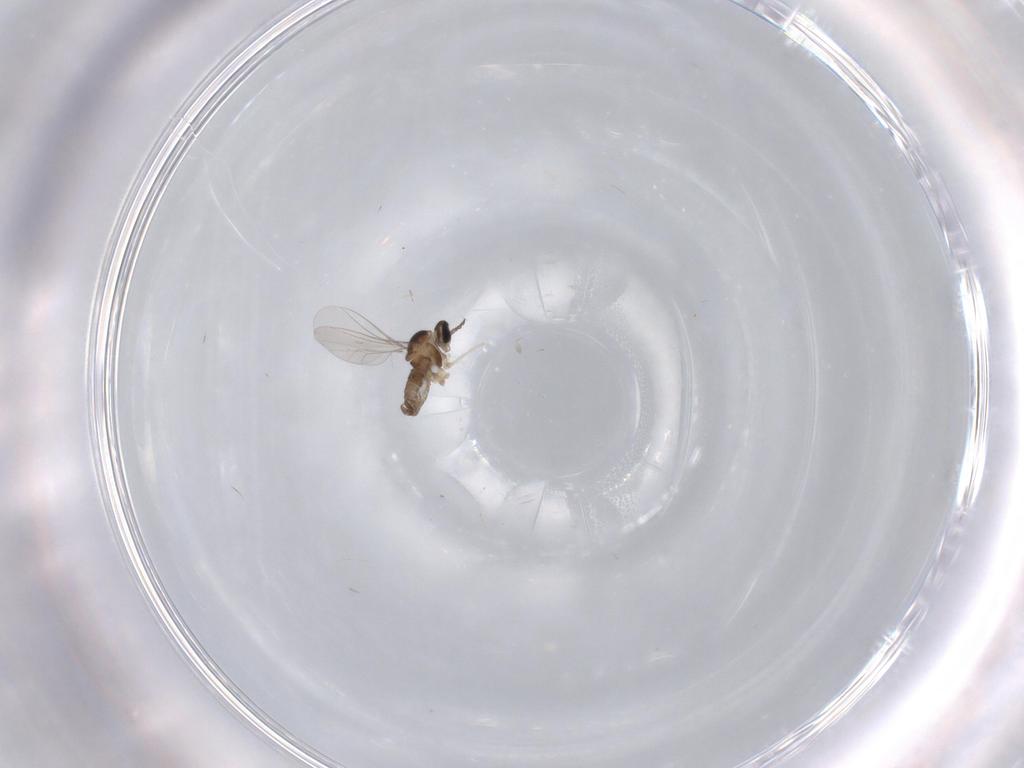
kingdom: Animalia
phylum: Arthropoda
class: Insecta
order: Diptera
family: Cecidomyiidae
